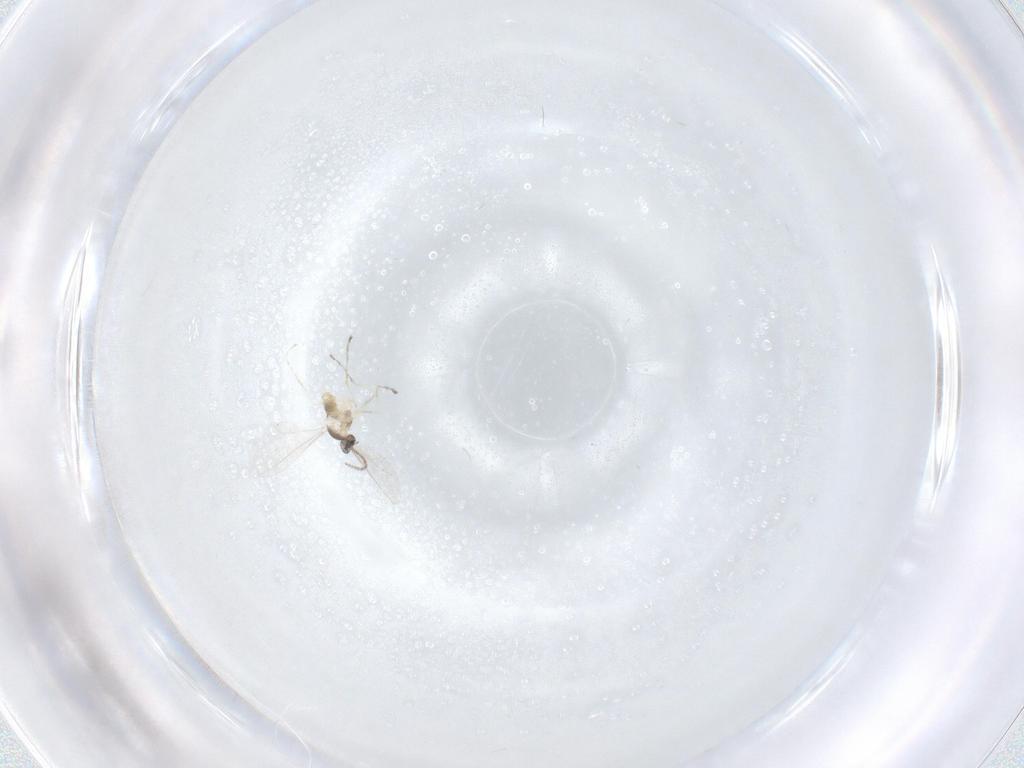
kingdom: Animalia
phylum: Arthropoda
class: Insecta
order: Diptera
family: Cecidomyiidae
